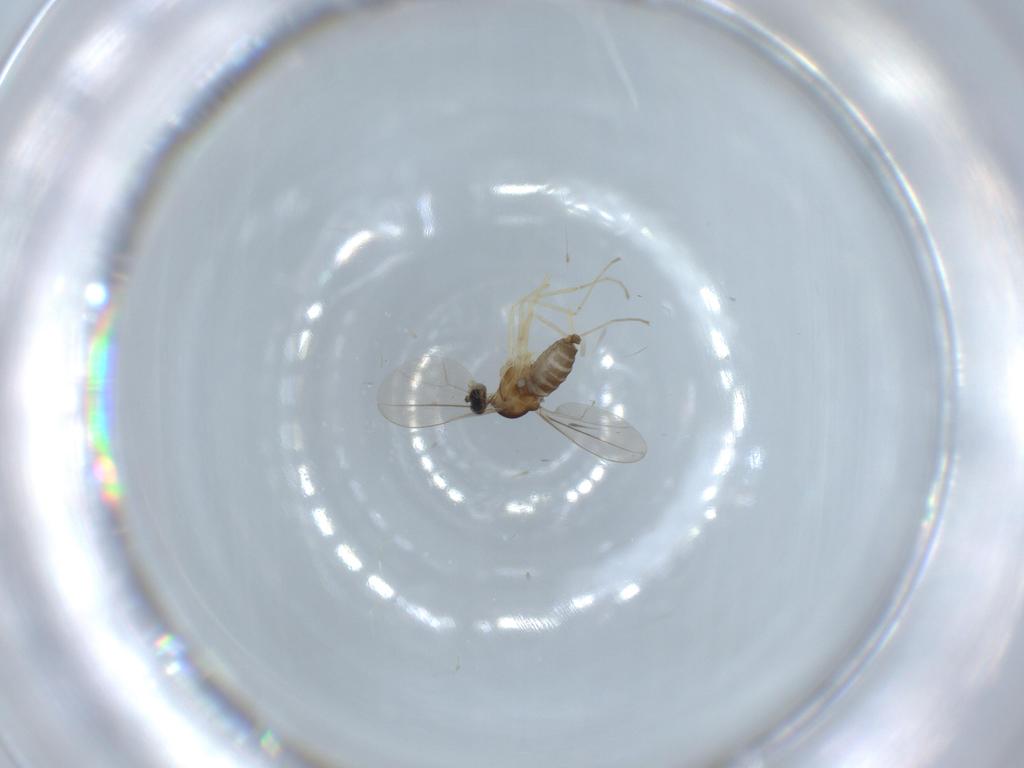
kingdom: Animalia
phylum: Arthropoda
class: Insecta
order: Diptera
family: Cecidomyiidae
